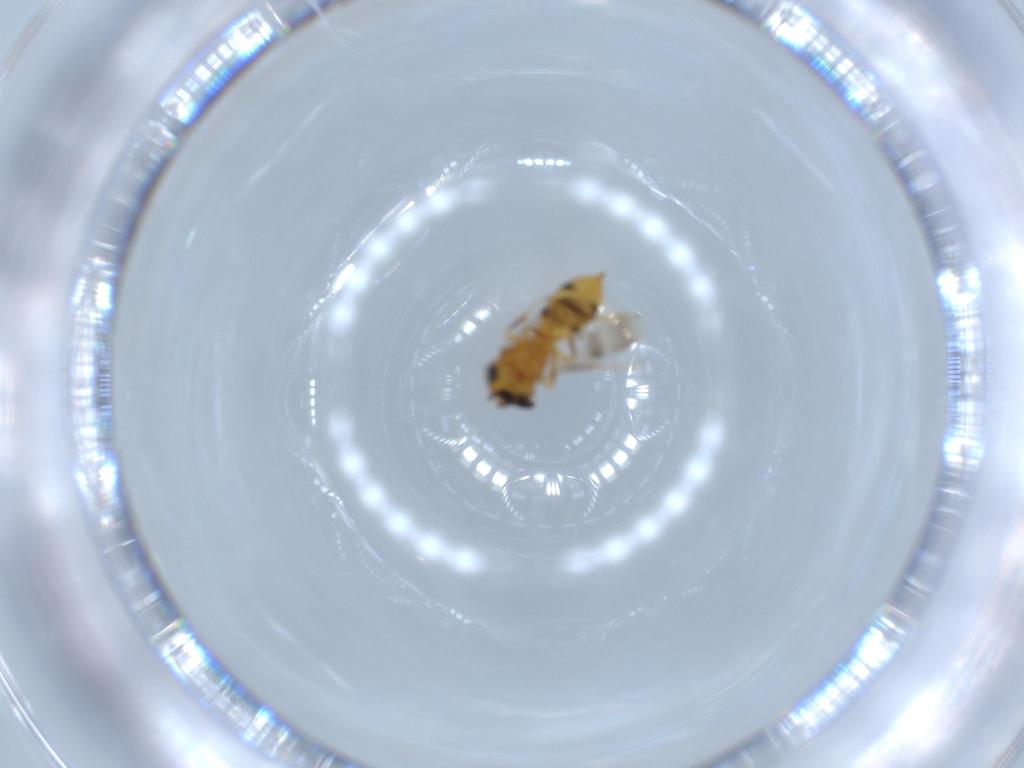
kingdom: Animalia
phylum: Arthropoda
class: Insecta
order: Hymenoptera
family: Scelionidae
